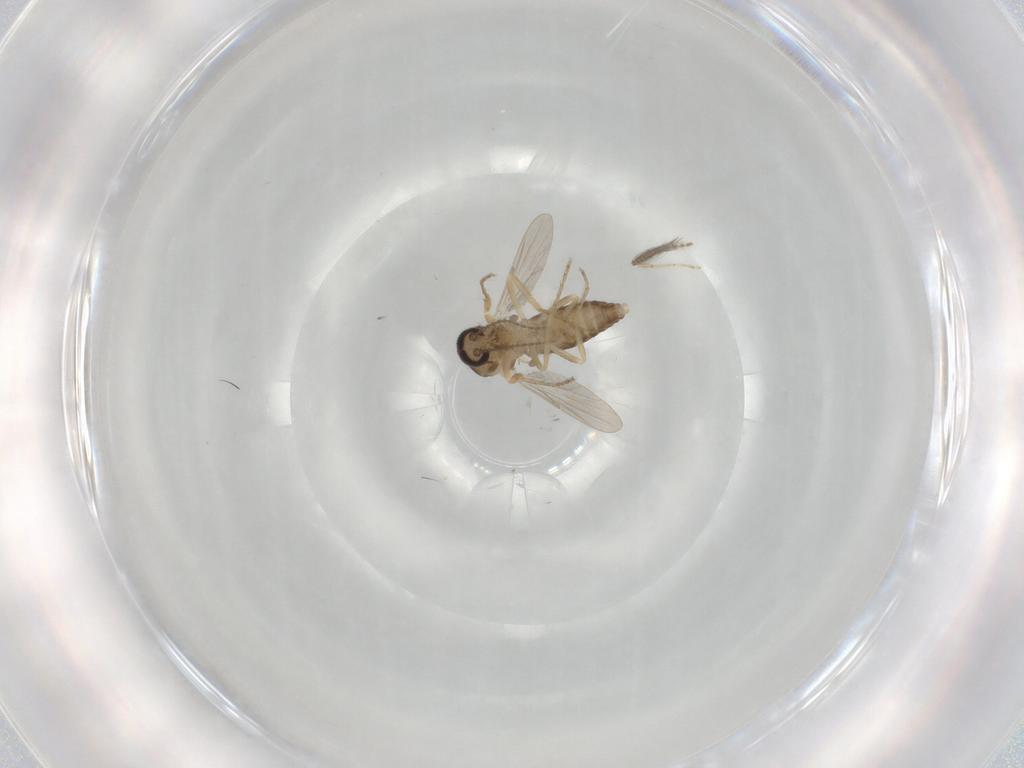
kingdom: Animalia
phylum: Arthropoda
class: Insecta
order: Diptera
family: Ceratopogonidae
